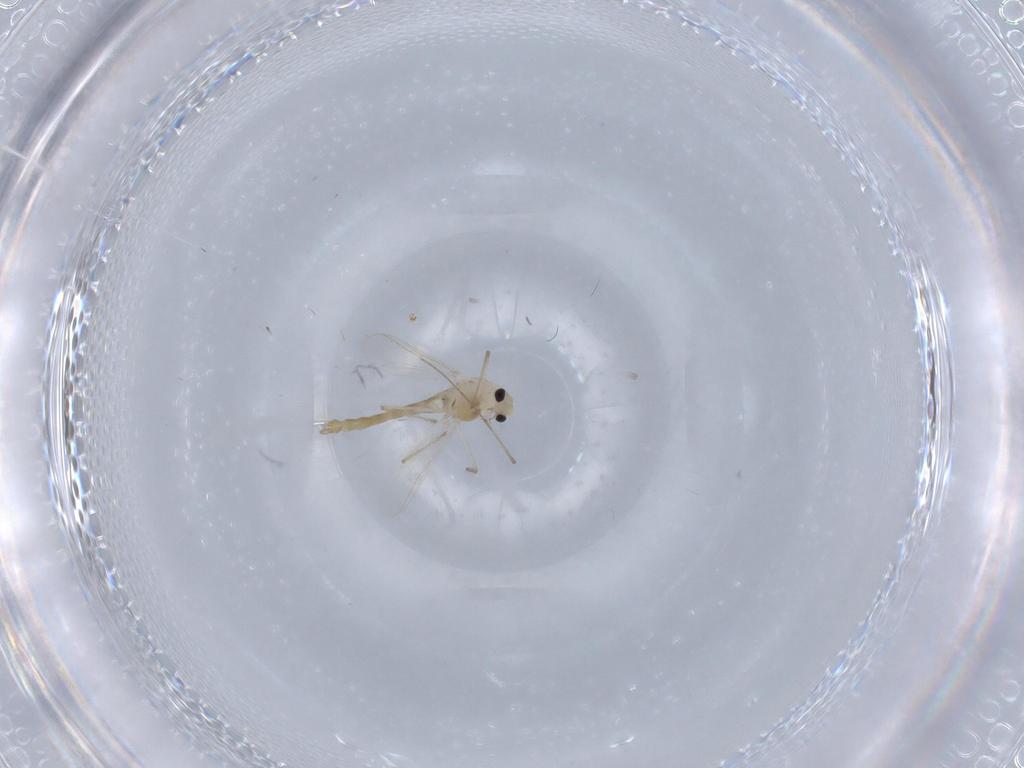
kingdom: Animalia
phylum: Arthropoda
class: Insecta
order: Diptera
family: Chironomidae
